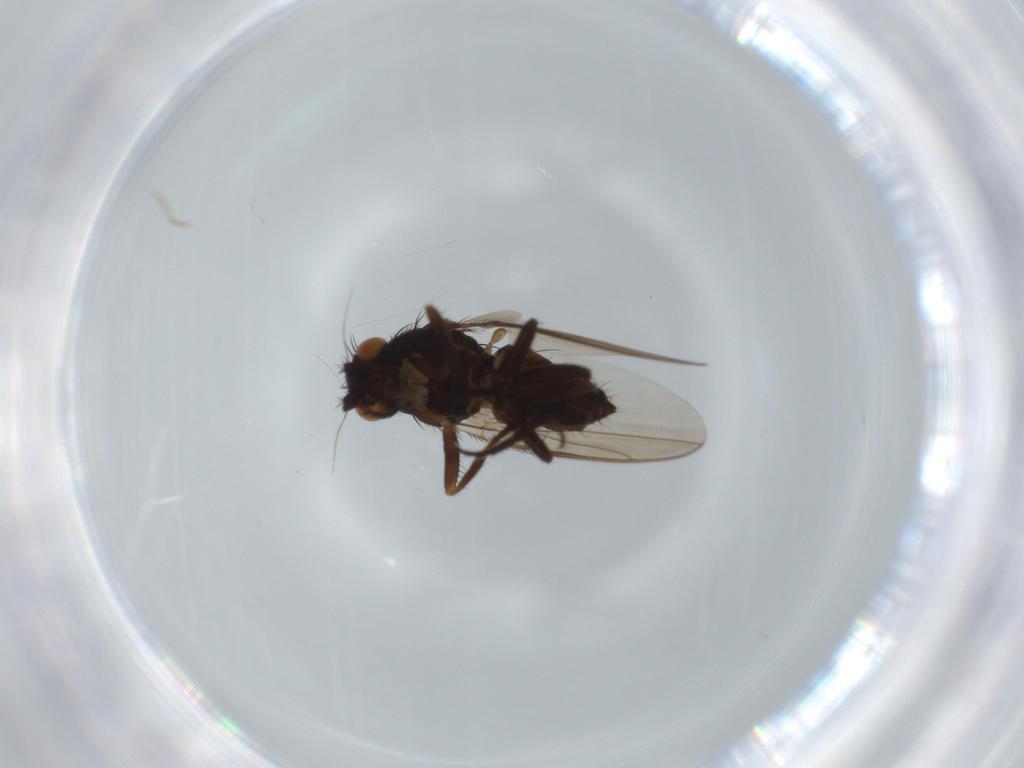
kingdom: Animalia
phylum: Arthropoda
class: Insecta
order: Diptera
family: Sphaeroceridae
